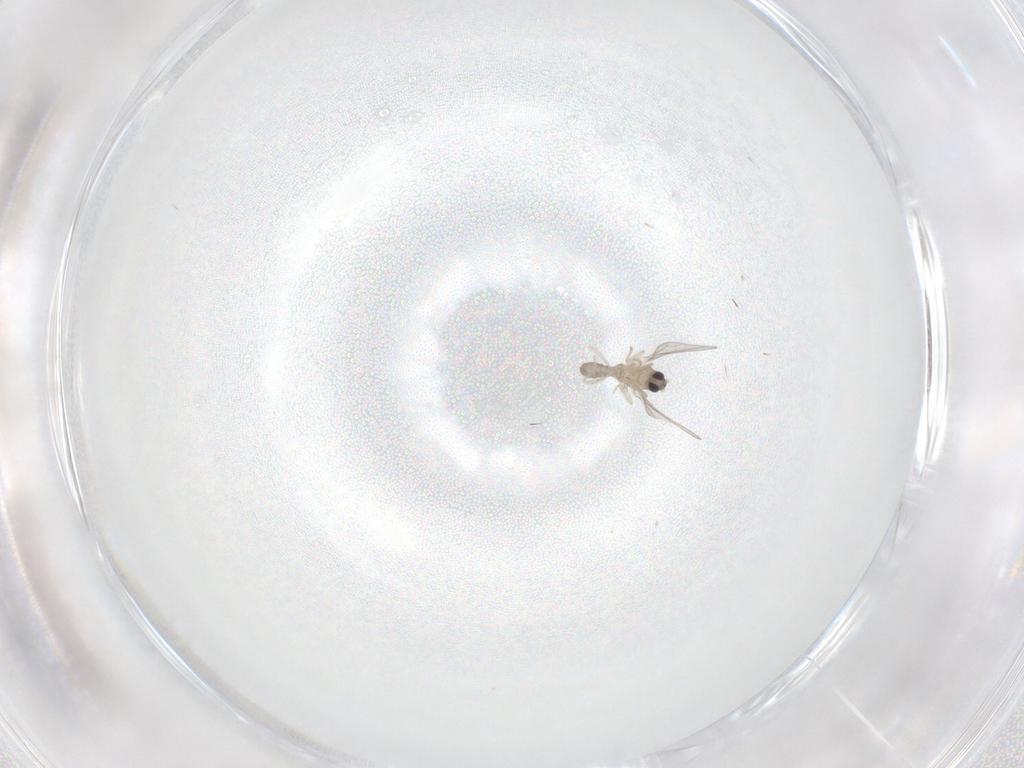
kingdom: Animalia
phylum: Arthropoda
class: Insecta
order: Diptera
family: Cecidomyiidae
